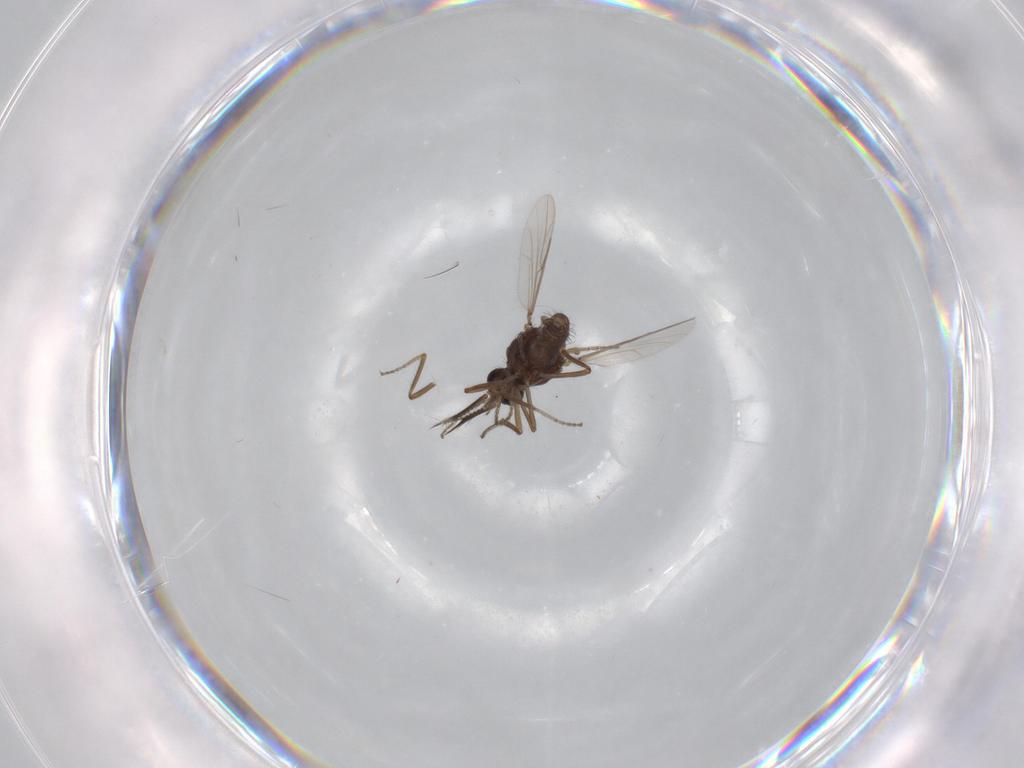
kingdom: Animalia
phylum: Arthropoda
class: Insecta
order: Diptera
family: Ceratopogonidae
